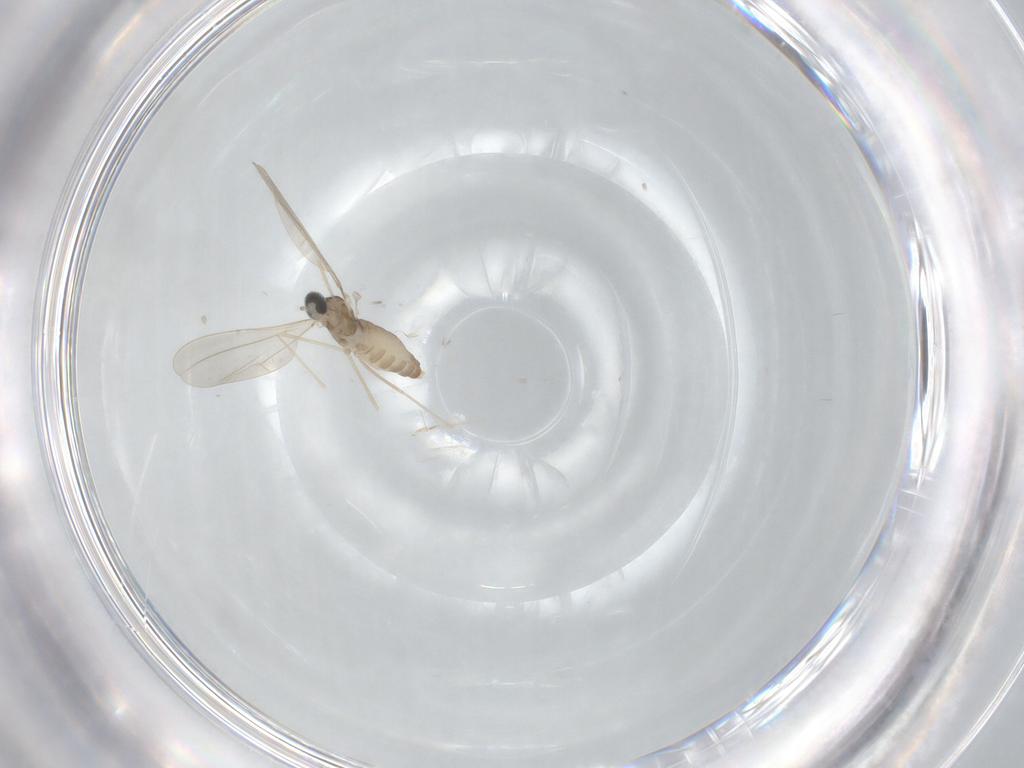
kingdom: Animalia
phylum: Arthropoda
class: Insecta
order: Diptera
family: Cecidomyiidae
